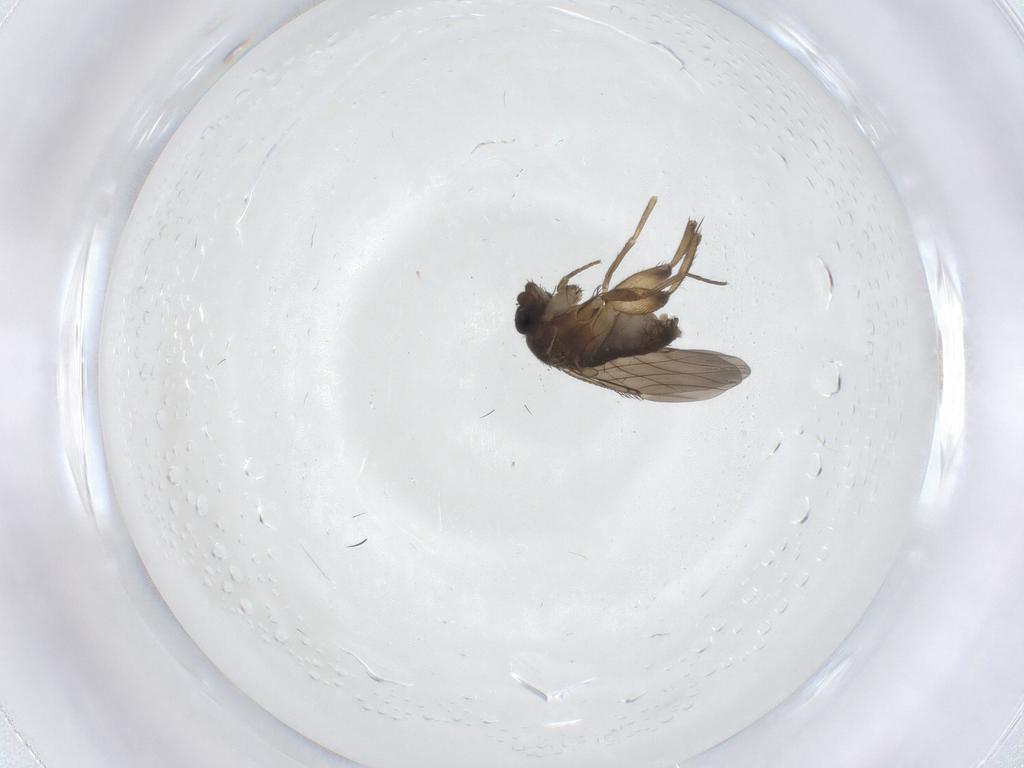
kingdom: Animalia
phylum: Arthropoda
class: Insecta
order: Diptera
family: Phoridae
